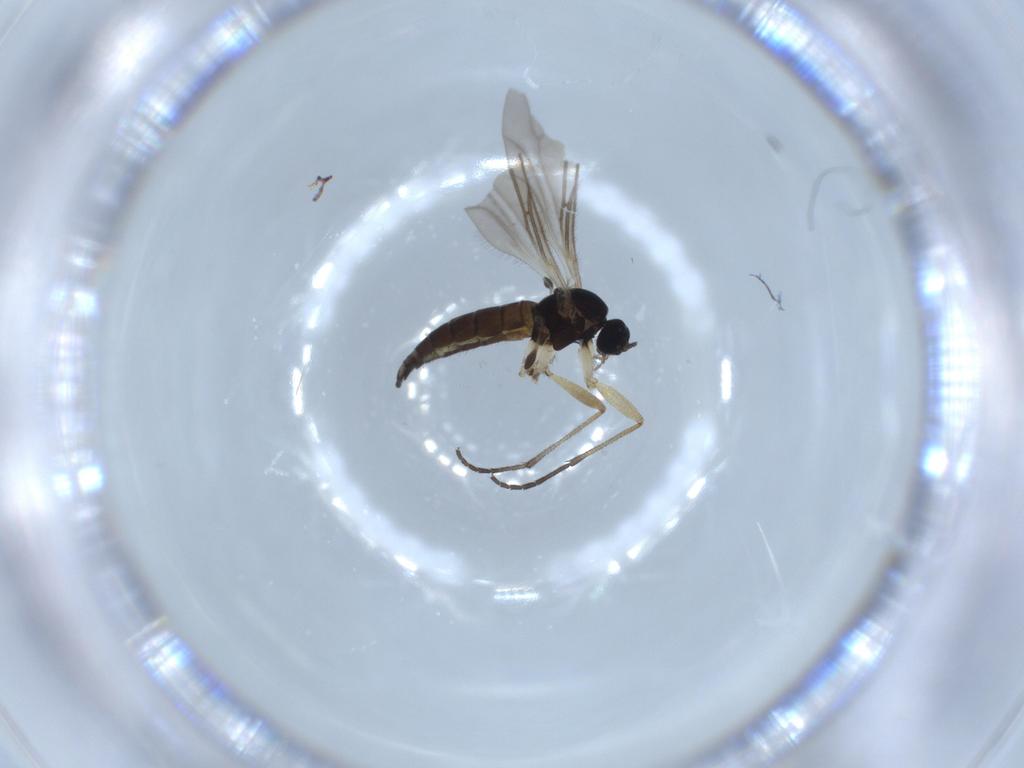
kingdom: Animalia
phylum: Arthropoda
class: Insecta
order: Diptera
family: Sciaridae
